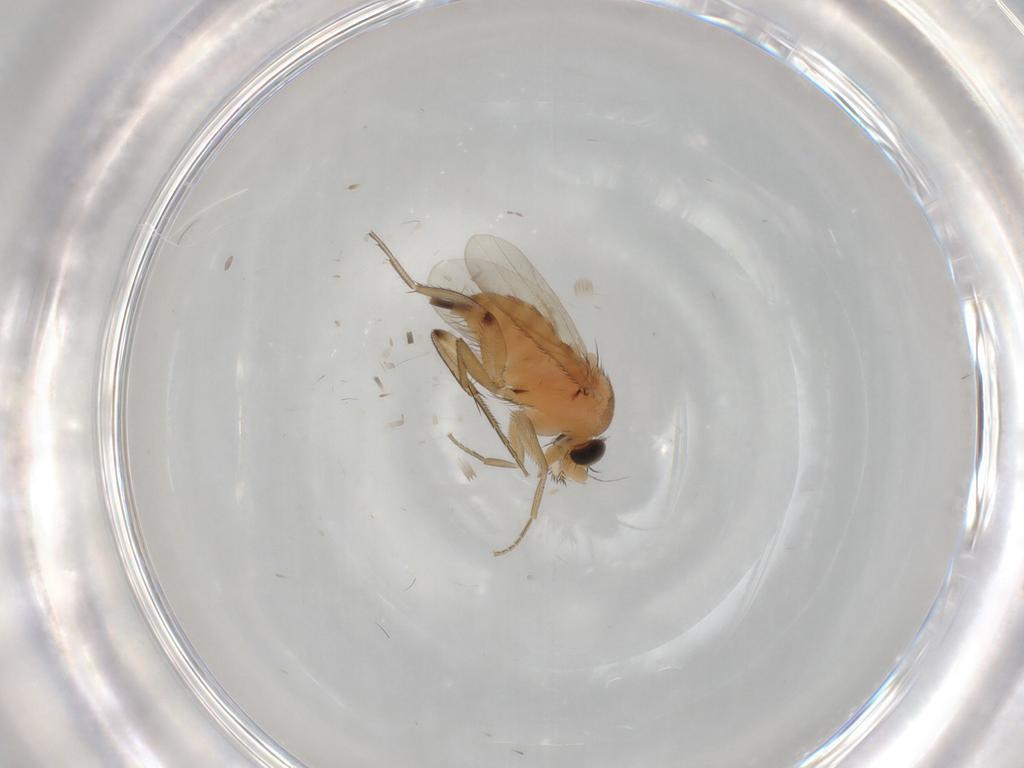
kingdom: Animalia
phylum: Arthropoda
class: Insecta
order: Diptera
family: Phoridae
